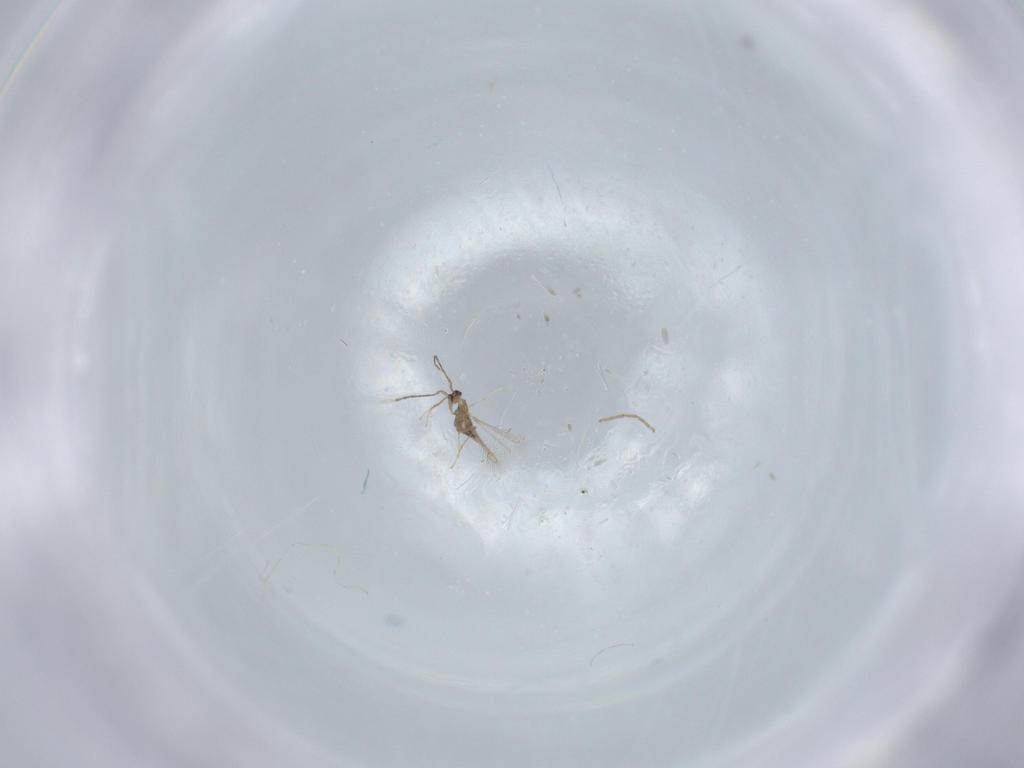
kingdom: Animalia
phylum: Arthropoda
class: Insecta
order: Hymenoptera
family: Mymaridae
